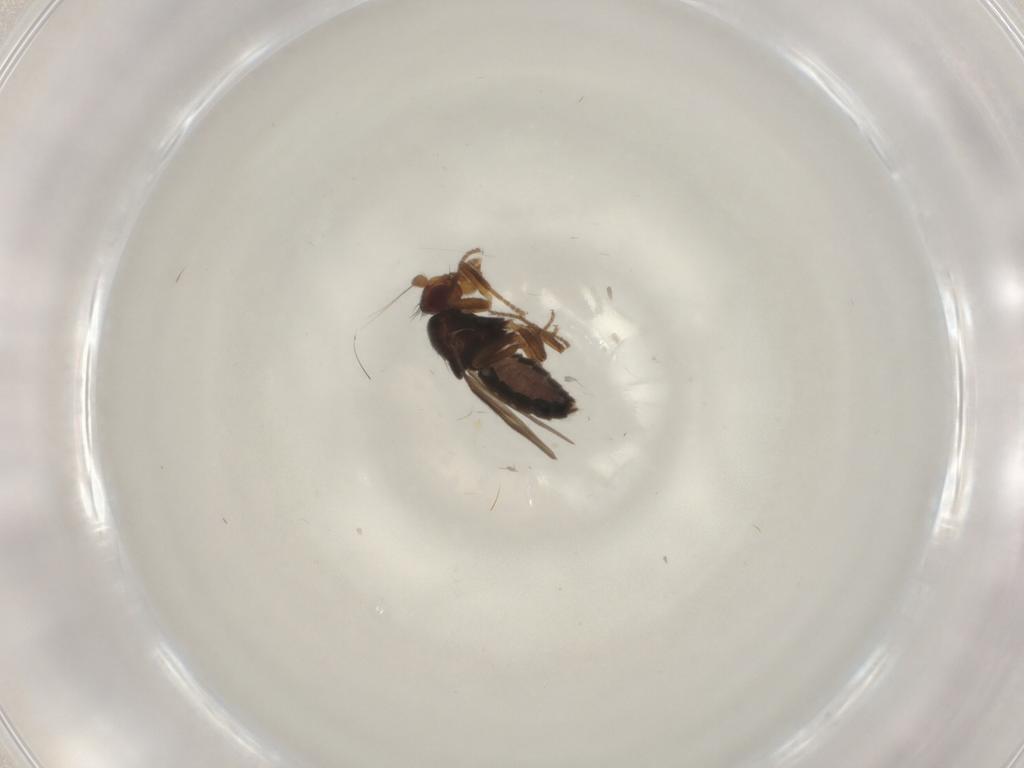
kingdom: Animalia
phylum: Arthropoda
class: Insecta
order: Diptera
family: Sphaeroceridae
